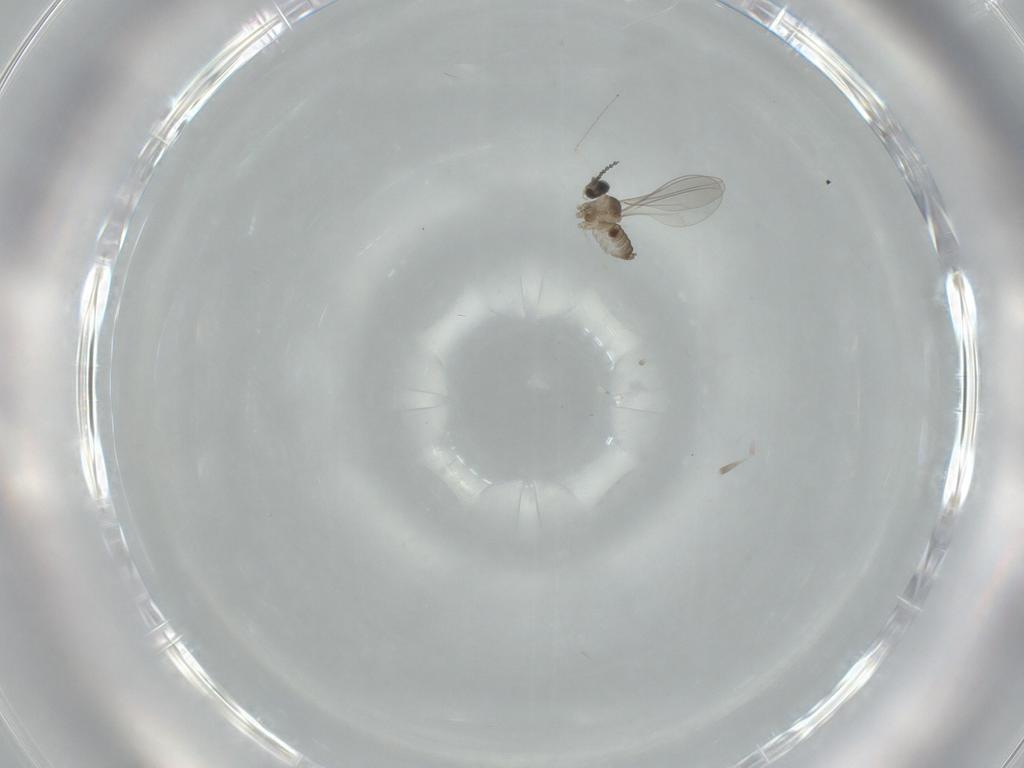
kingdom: Animalia
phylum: Arthropoda
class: Insecta
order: Diptera
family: Cecidomyiidae
